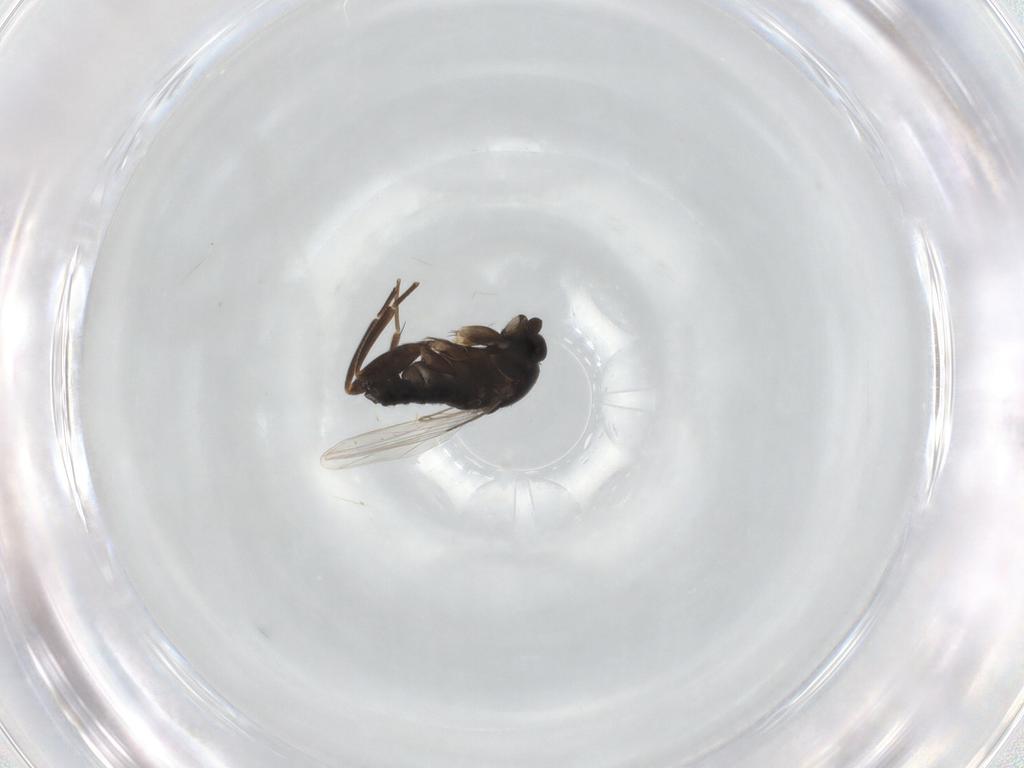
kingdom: Animalia
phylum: Arthropoda
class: Insecta
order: Diptera
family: Phoridae
